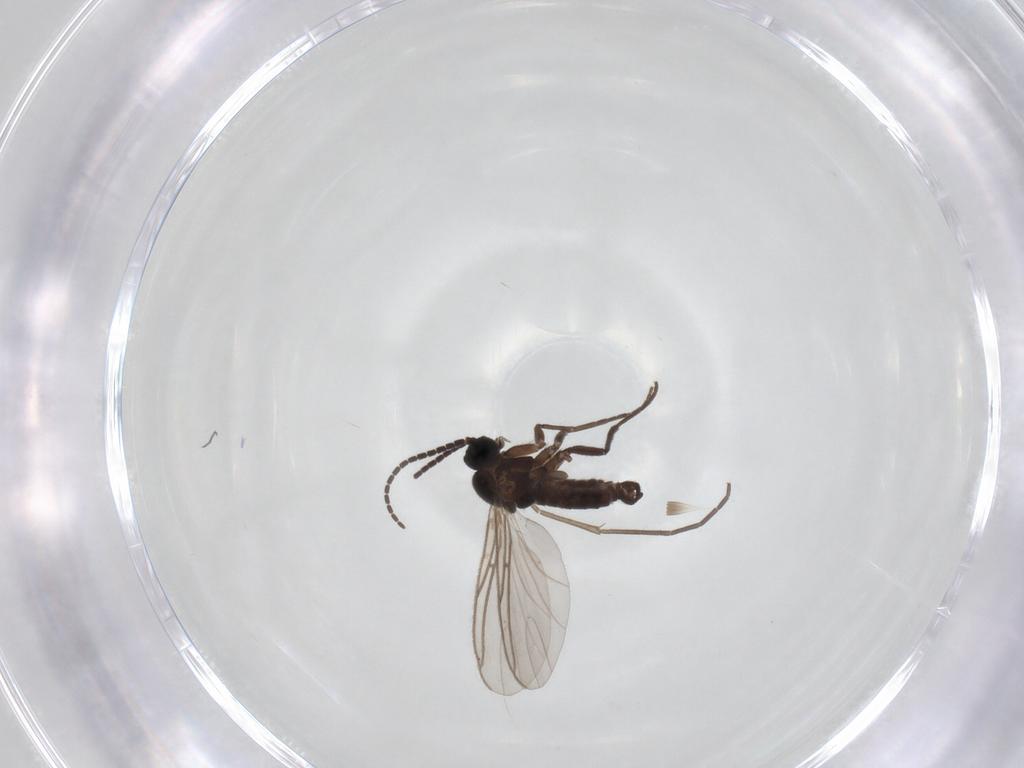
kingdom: Animalia
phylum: Arthropoda
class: Insecta
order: Diptera
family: Sciaridae
